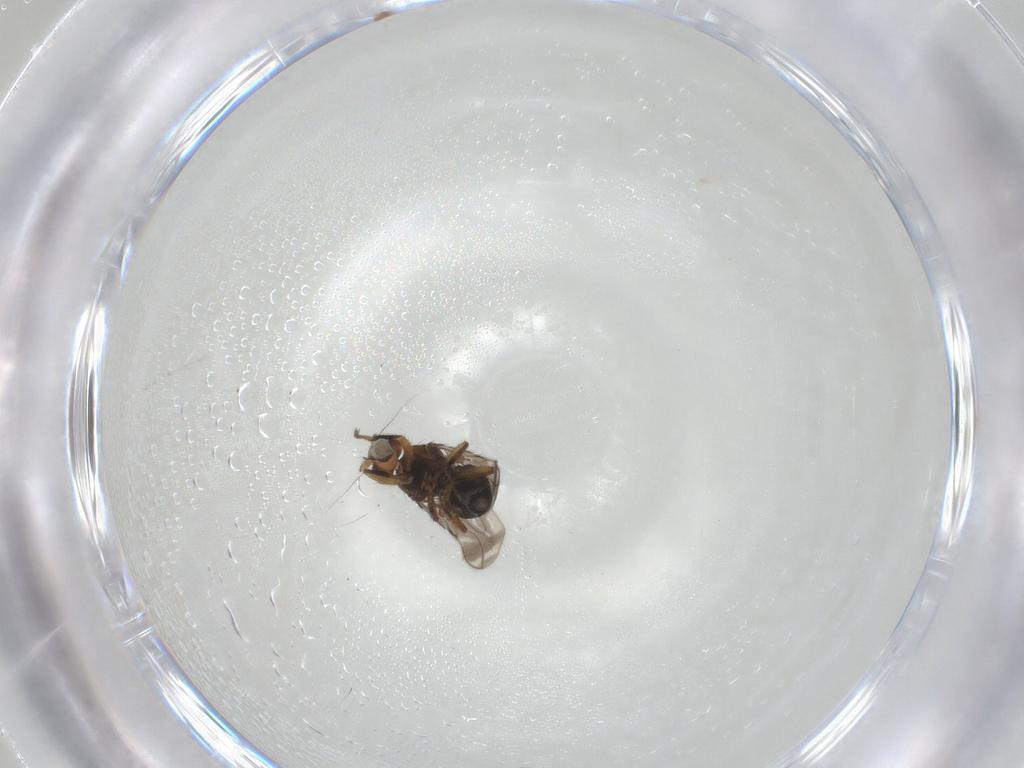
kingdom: Animalia
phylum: Arthropoda
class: Insecta
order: Diptera
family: Sphaeroceridae
